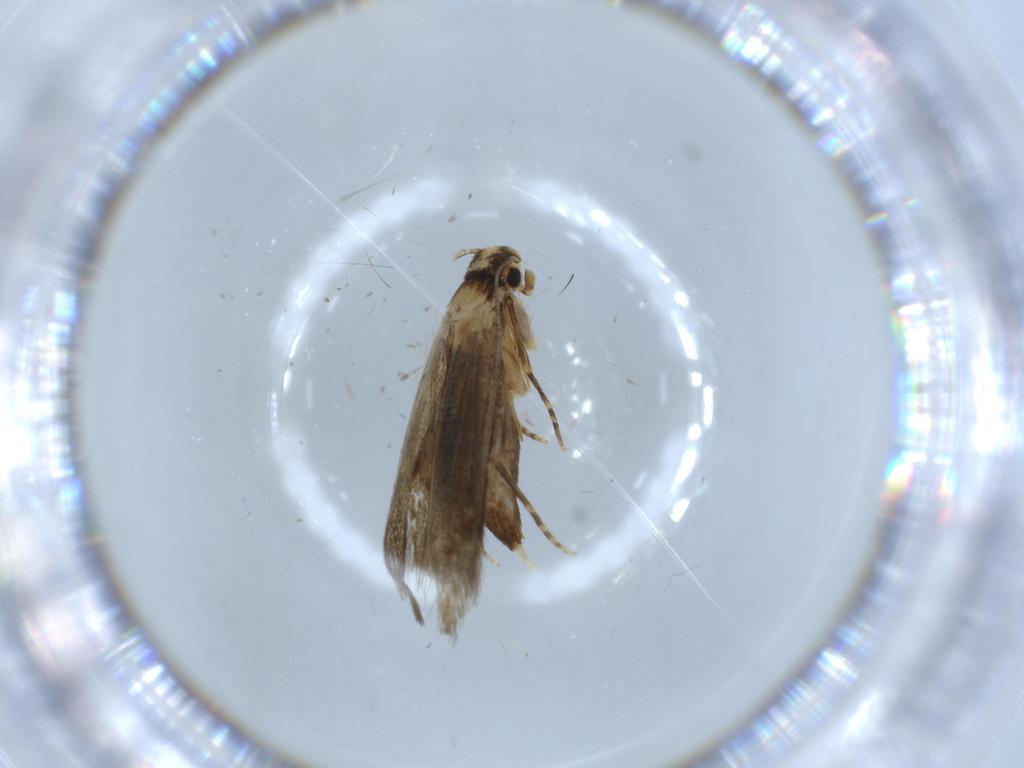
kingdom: Animalia
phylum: Arthropoda
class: Insecta
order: Lepidoptera
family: Tineidae
